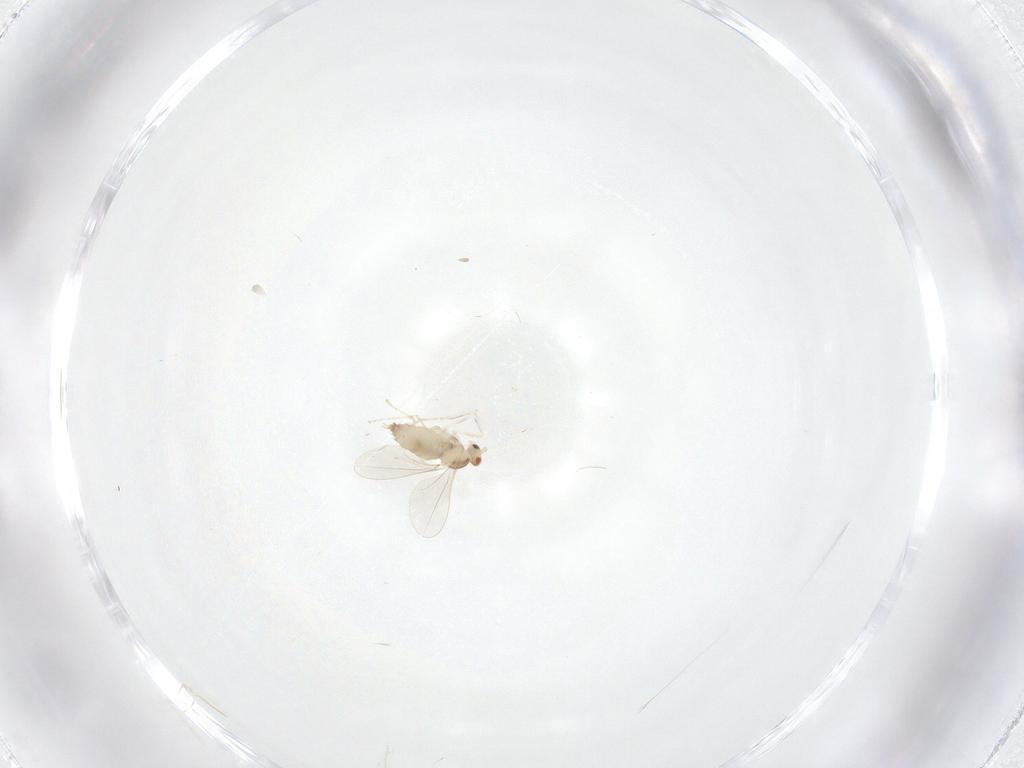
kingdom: Animalia
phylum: Arthropoda
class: Insecta
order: Diptera
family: Cecidomyiidae
